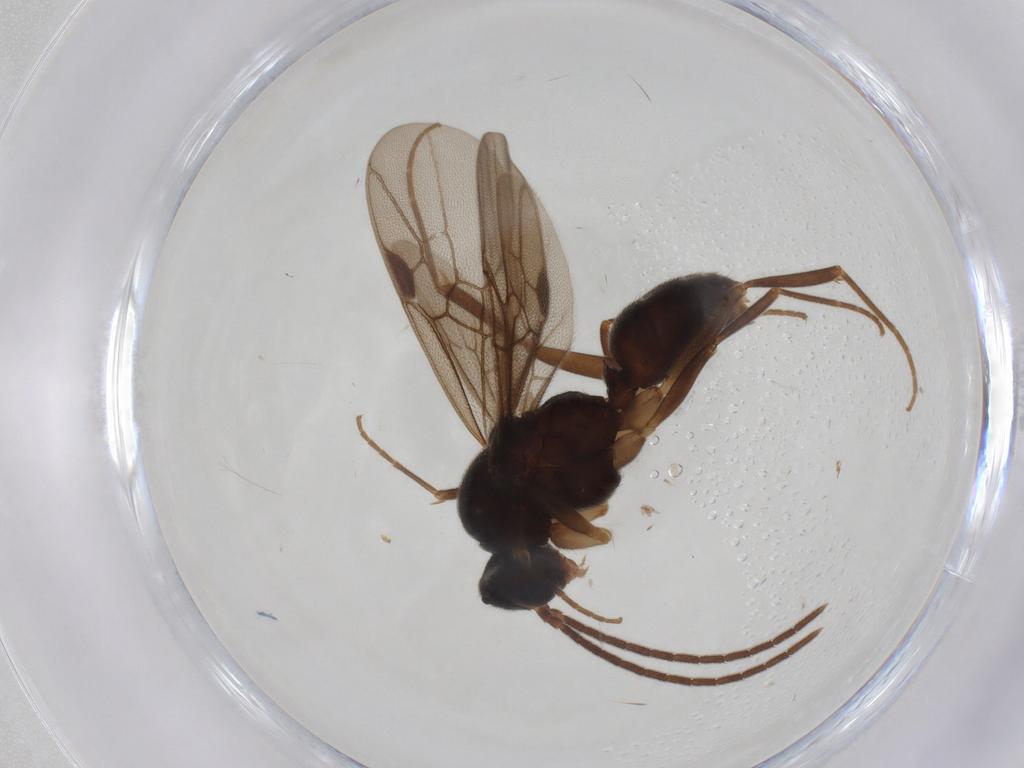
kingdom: Animalia
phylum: Arthropoda
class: Insecta
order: Hymenoptera
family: Formicidae
